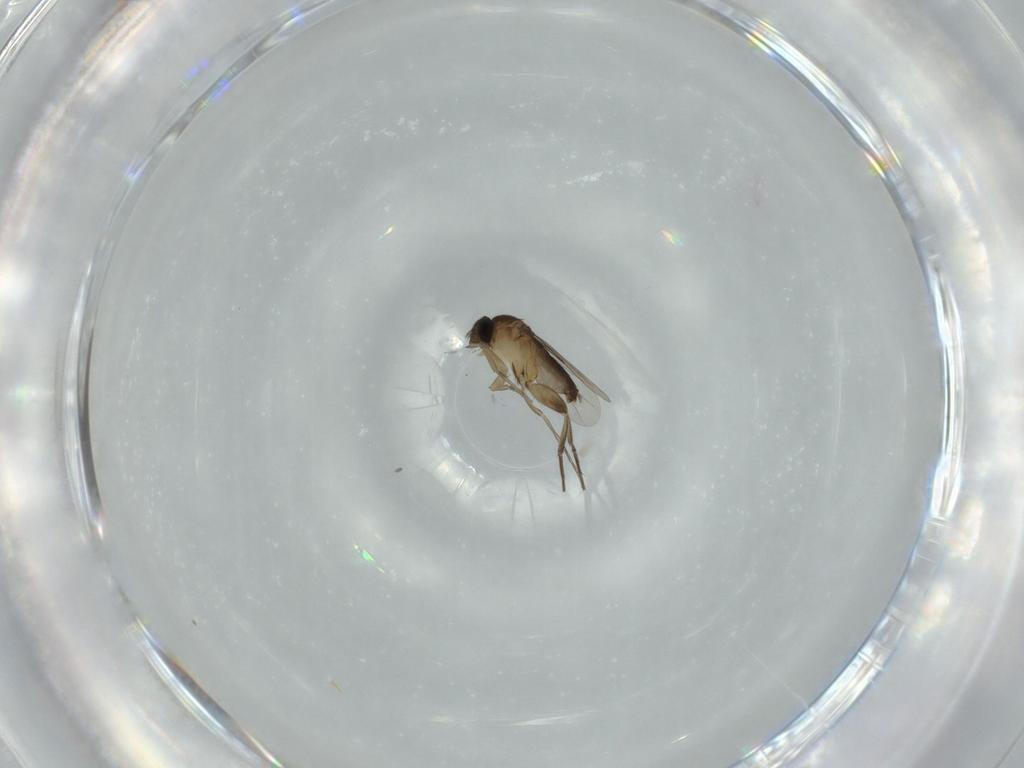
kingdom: Animalia
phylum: Arthropoda
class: Insecta
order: Diptera
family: Phoridae
